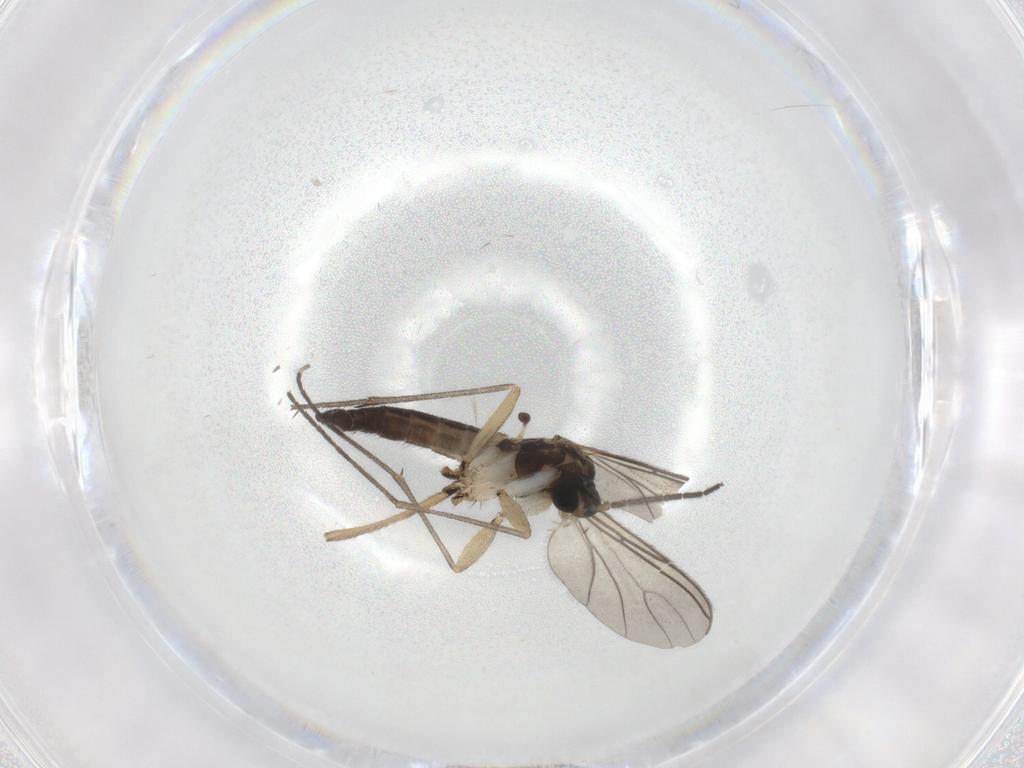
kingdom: Animalia
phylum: Arthropoda
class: Insecta
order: Diptera
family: Sciaridae
